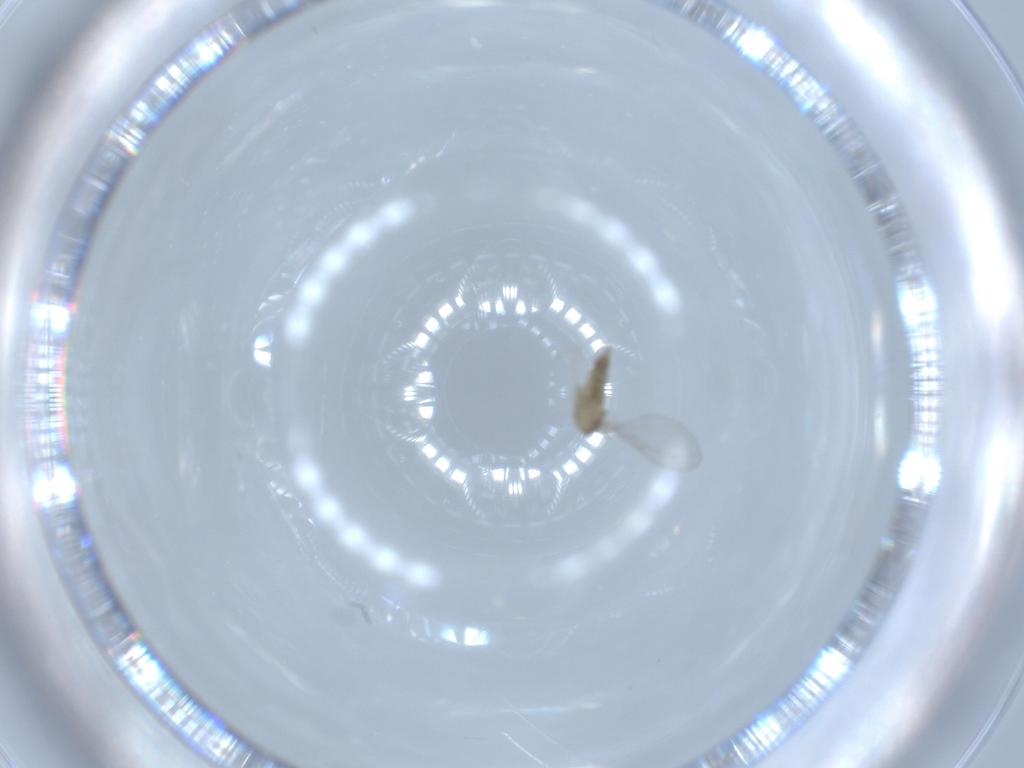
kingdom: Animalia
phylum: Arthropoda
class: Insecta
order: Diptera
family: Cecidomyiidae
